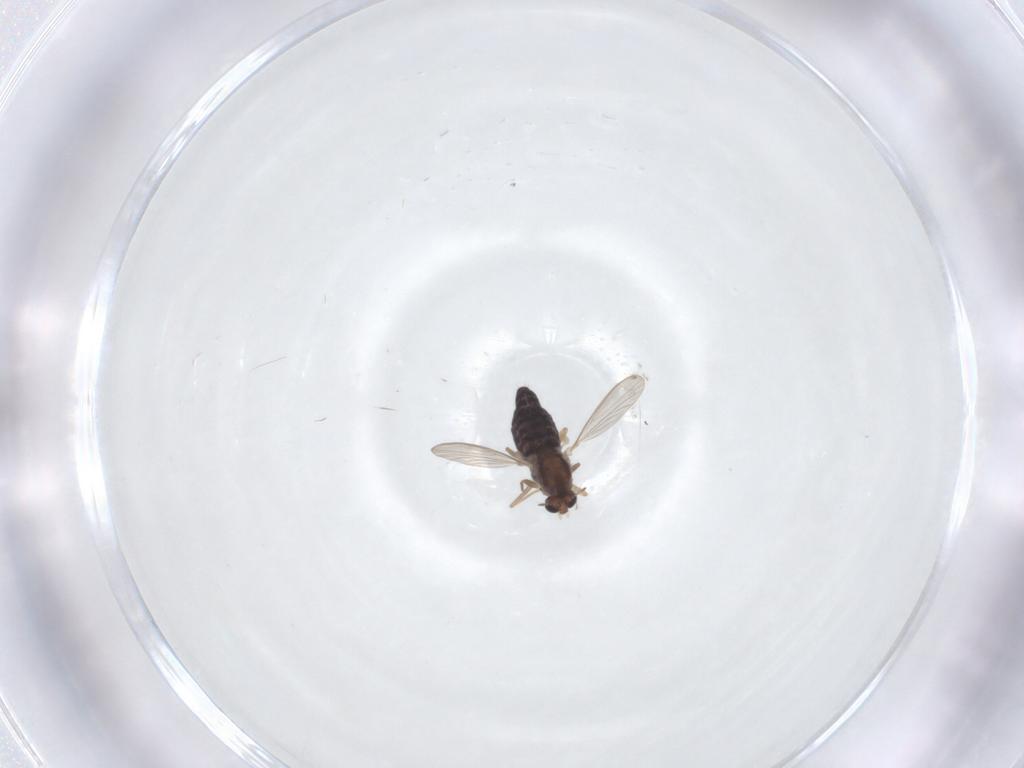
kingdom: Animalia
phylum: Arthropoda
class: Insecta
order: Diptera
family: Chironomidae
